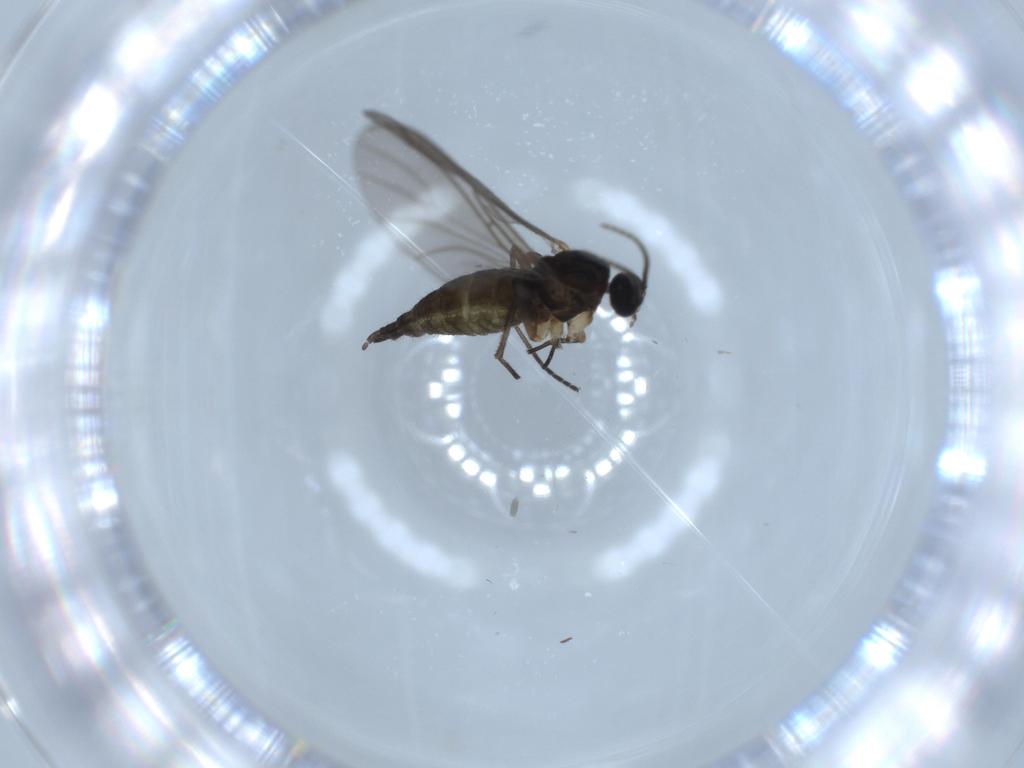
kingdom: Animalia
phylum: Arthropoda
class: Insecta
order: Diptera
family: Sciaridae
